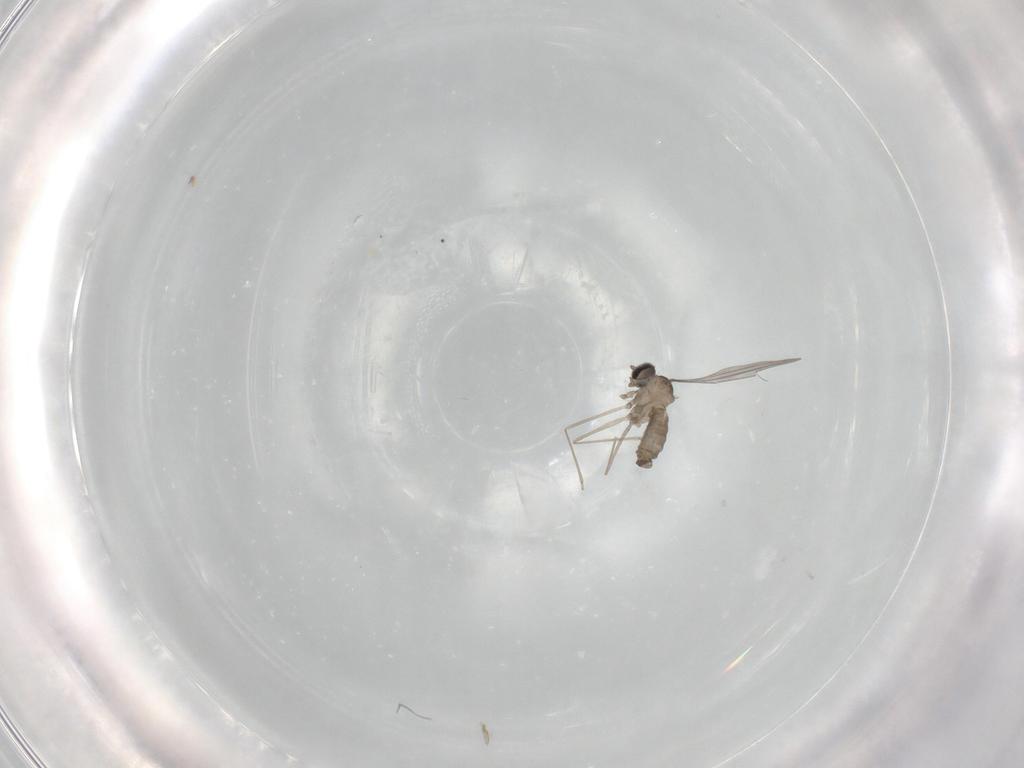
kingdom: Animalia
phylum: Arthropoda
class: Insecta
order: Diptera
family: Cecidomyiidae
